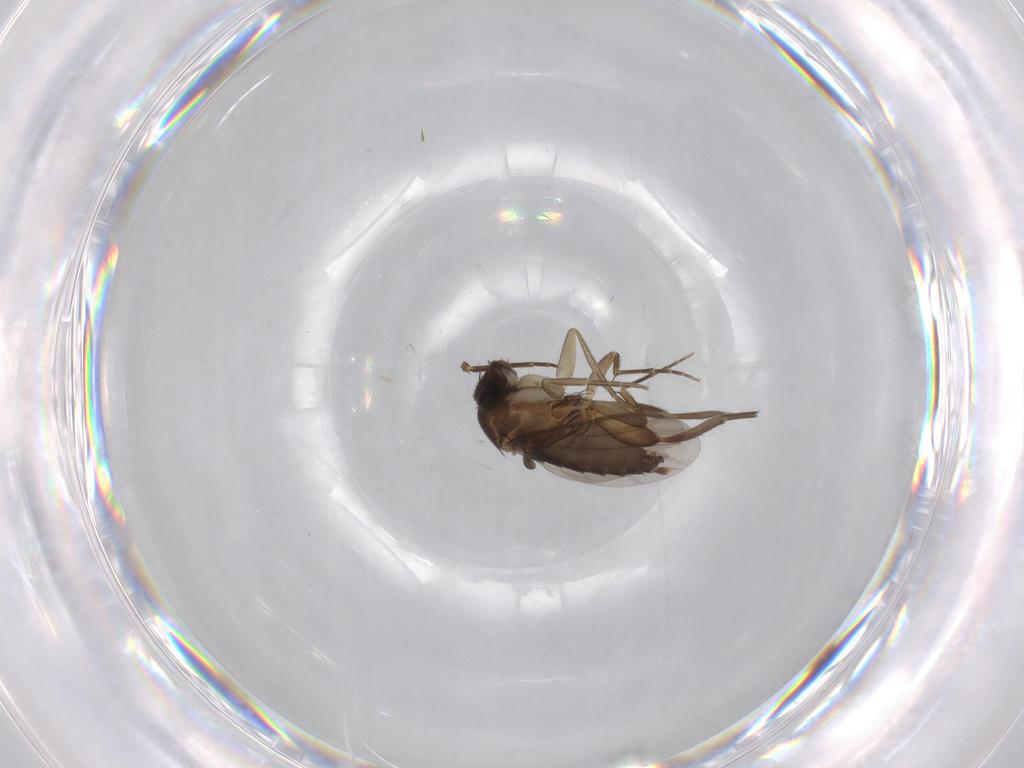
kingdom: Animalia
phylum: Arthropoda
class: Insecta
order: Diptera
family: Phoridae
